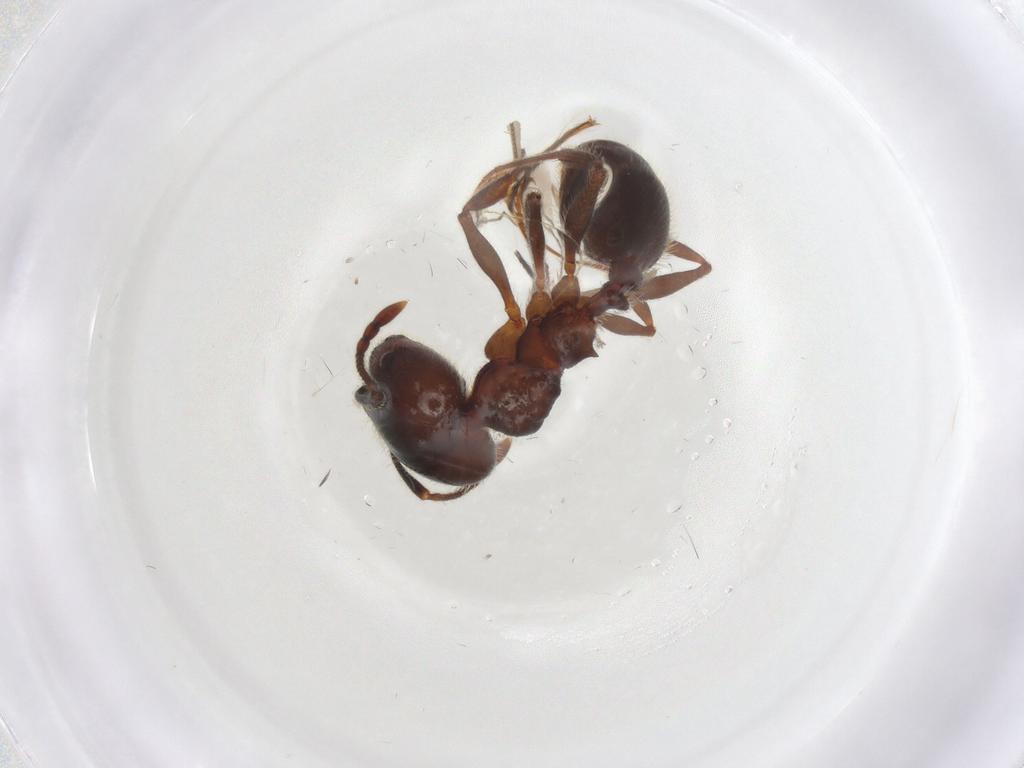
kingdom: Animalia
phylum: Arthropoda
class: Insecta
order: Hymenoptera
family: Formicidae
